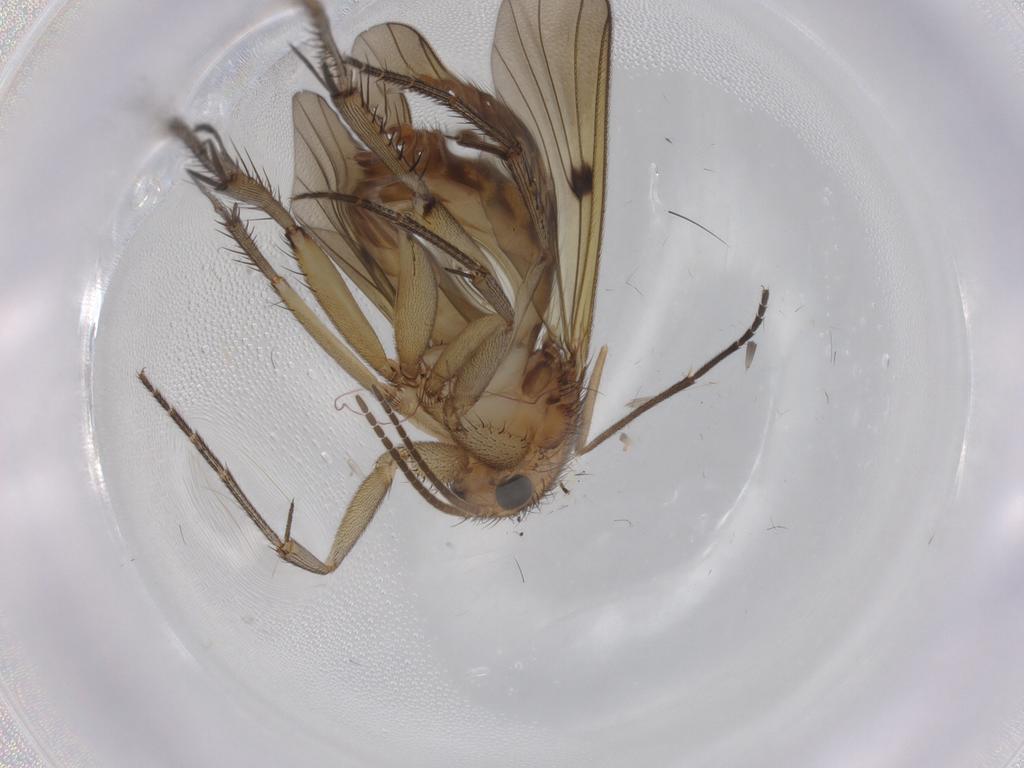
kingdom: Animalia
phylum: Arthropoda
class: Insecta
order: Diptera
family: Mycetophilidae
